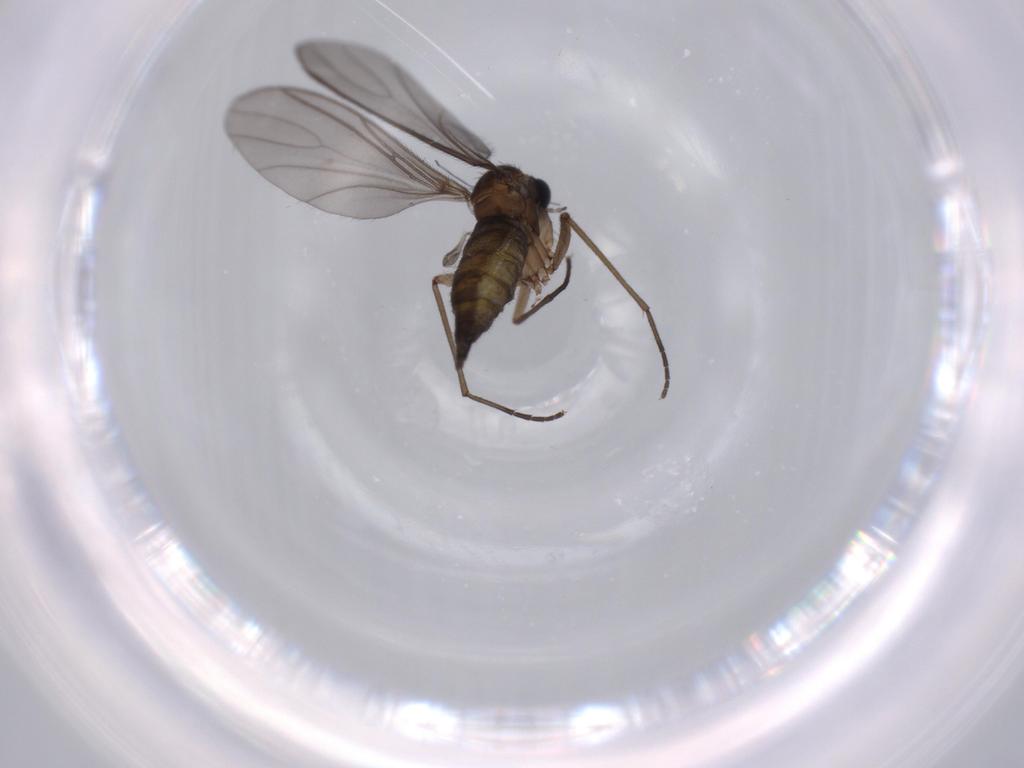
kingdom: Animalia
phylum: Arthropoda
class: Insecta
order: Diptera
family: Sciaridae
